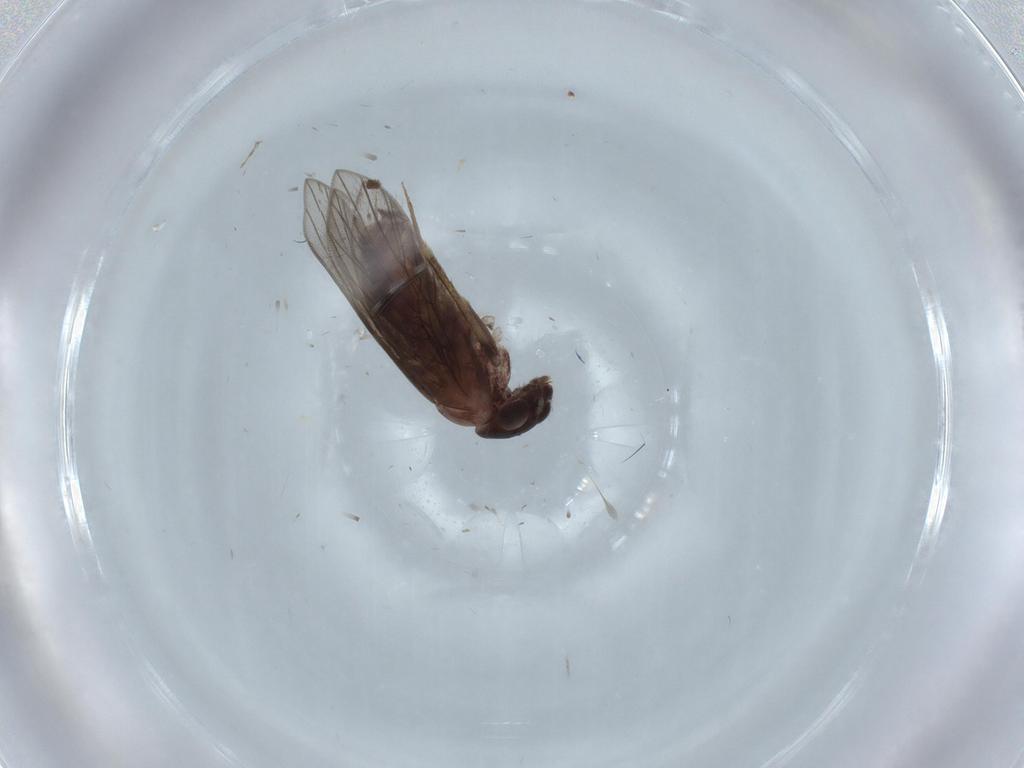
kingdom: Animalia
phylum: Arthropoda
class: Insecta
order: Psocodea
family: Lepidopsocidae
